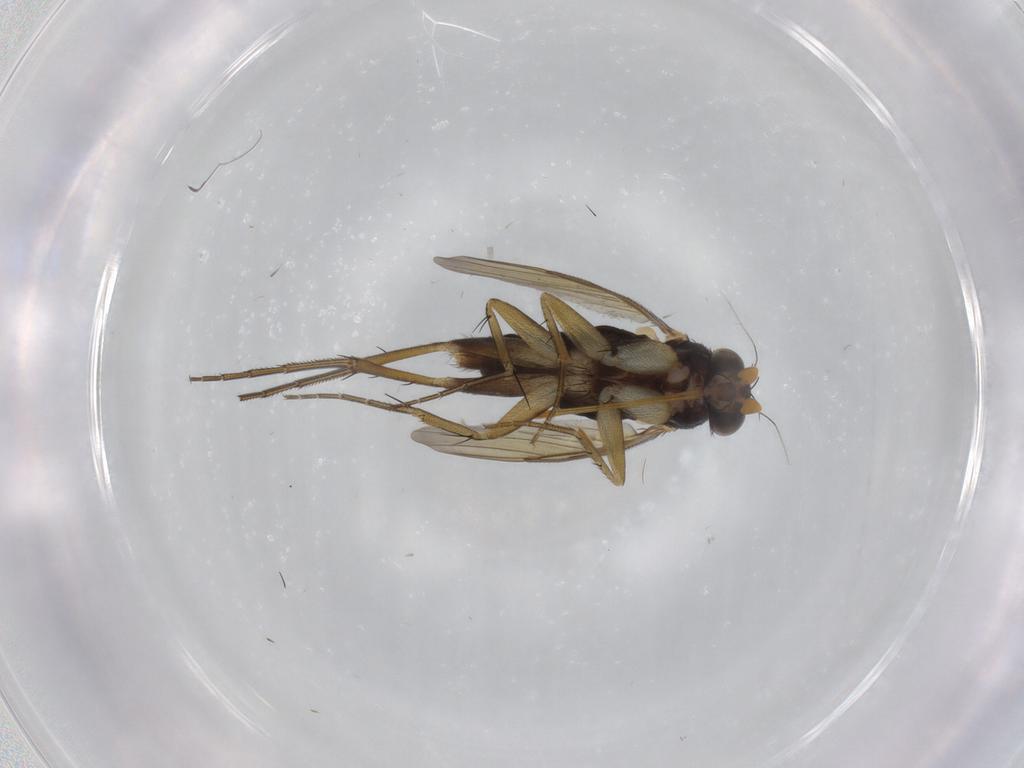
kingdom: Animalia
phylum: Arthropoda
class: Insecta
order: Diptera
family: Phoridae
